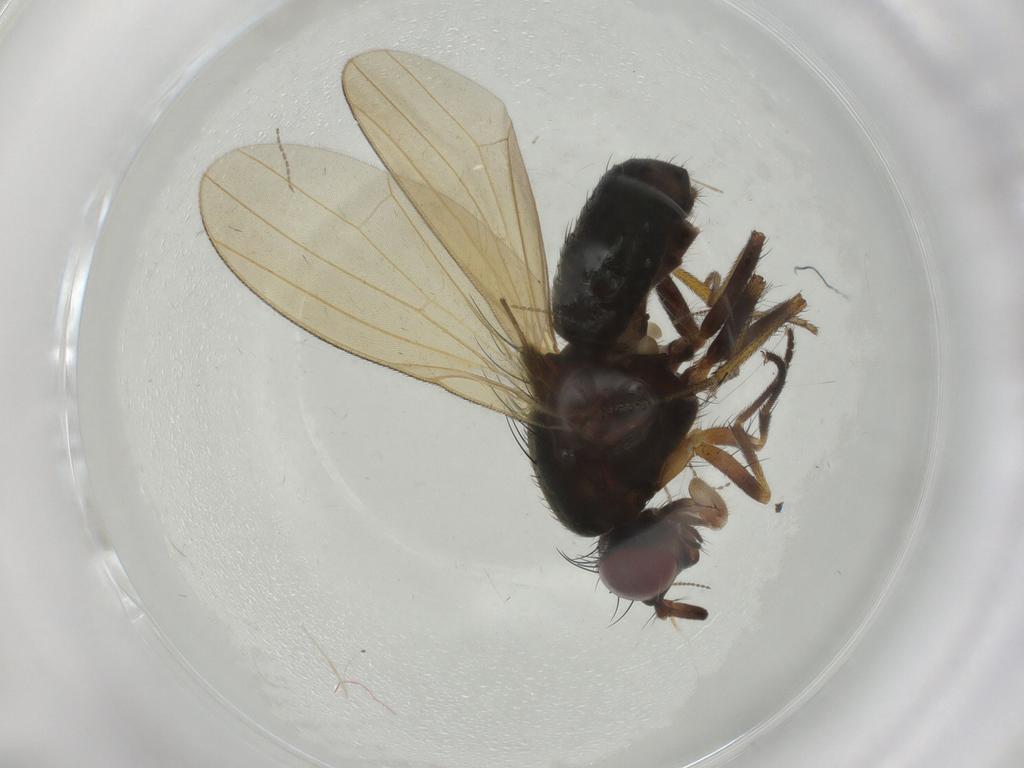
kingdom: Animalia
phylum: Arthropoda
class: Insecta
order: Diptera
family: Chironomidae
